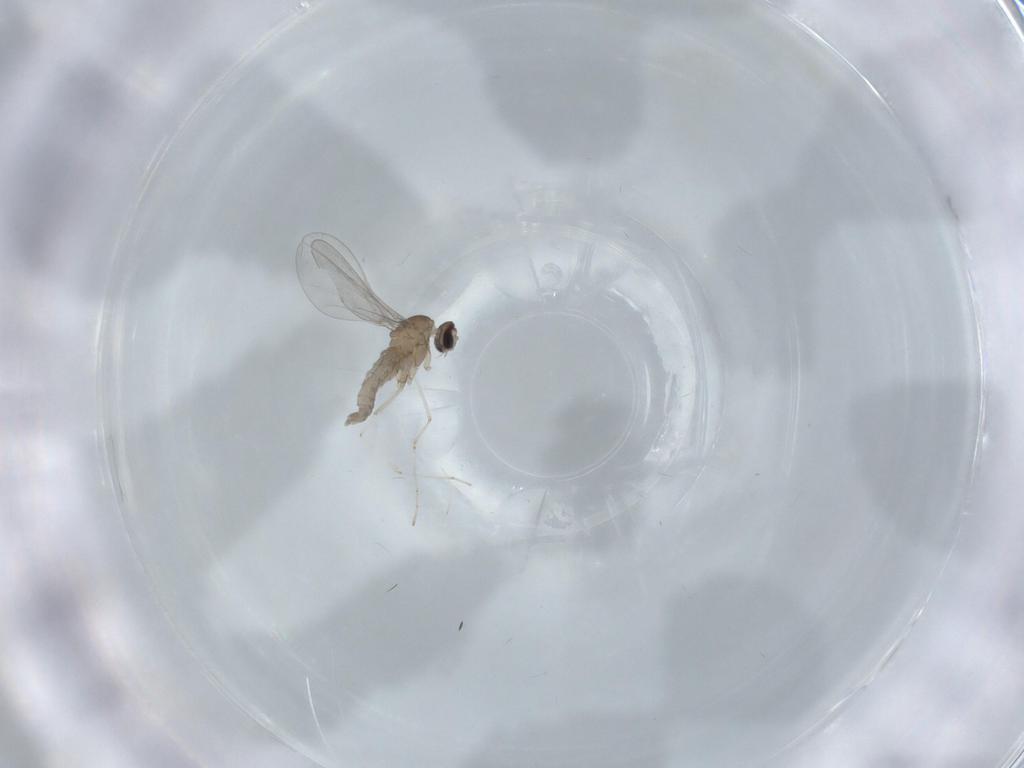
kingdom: Animalia
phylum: Arthropoda
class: Insecta
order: Diptera
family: Cecidomyiidae
